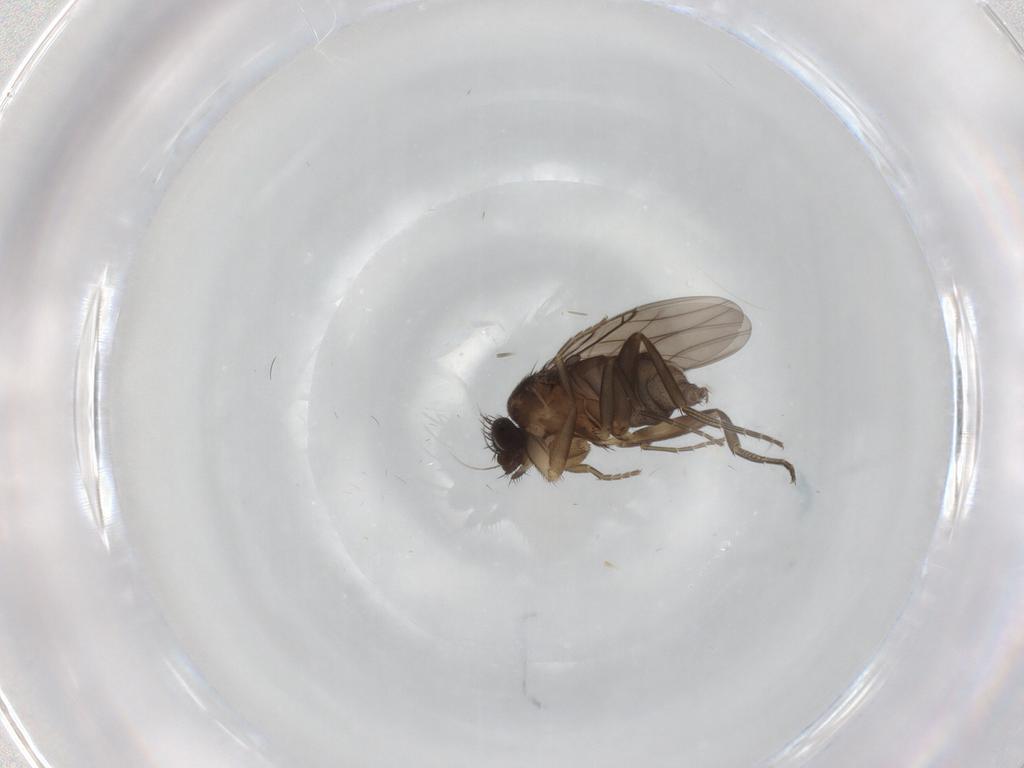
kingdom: Animalia
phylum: Arthropoda
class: Insecta
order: Diptera
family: Phoridae
